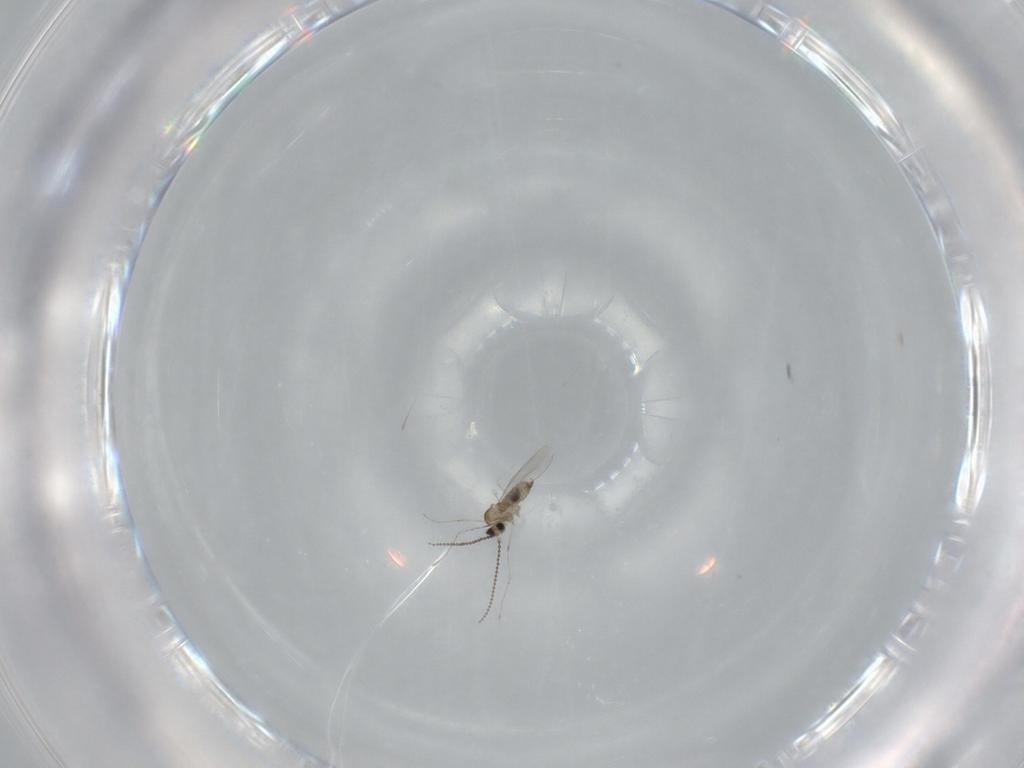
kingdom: Animalia
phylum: Arthropoda
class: Insecta
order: Diptera
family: Cecidomyiidae
